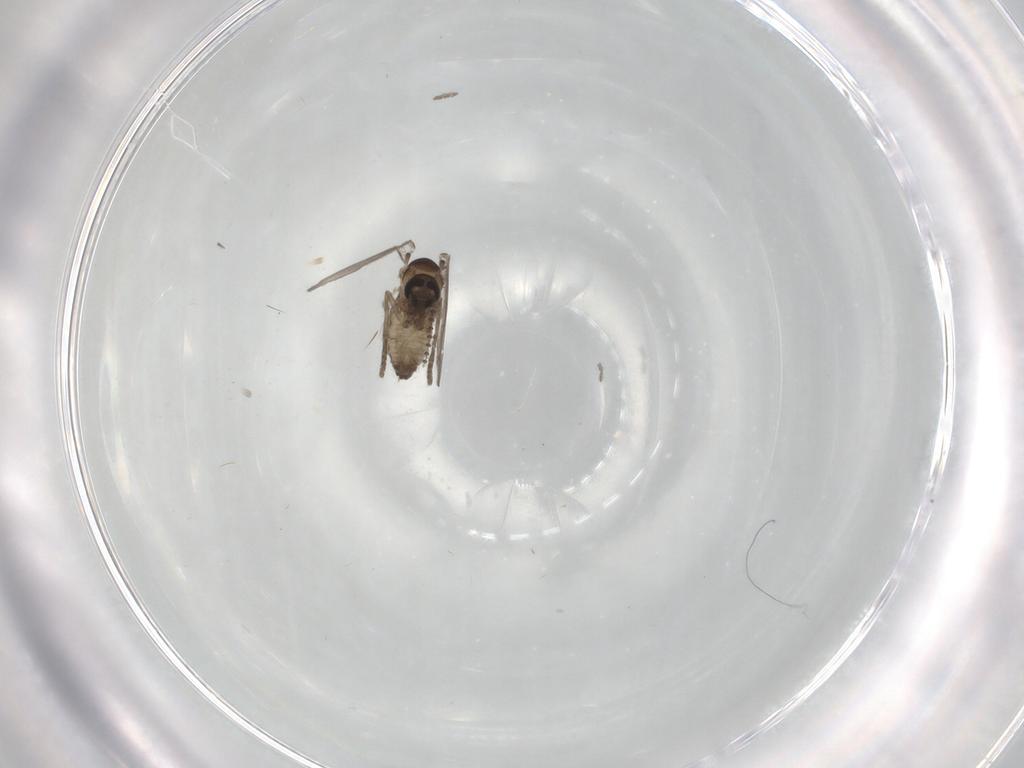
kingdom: Animalia
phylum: Arthropoda
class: Insecta
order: Diptera
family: Psychodidae
